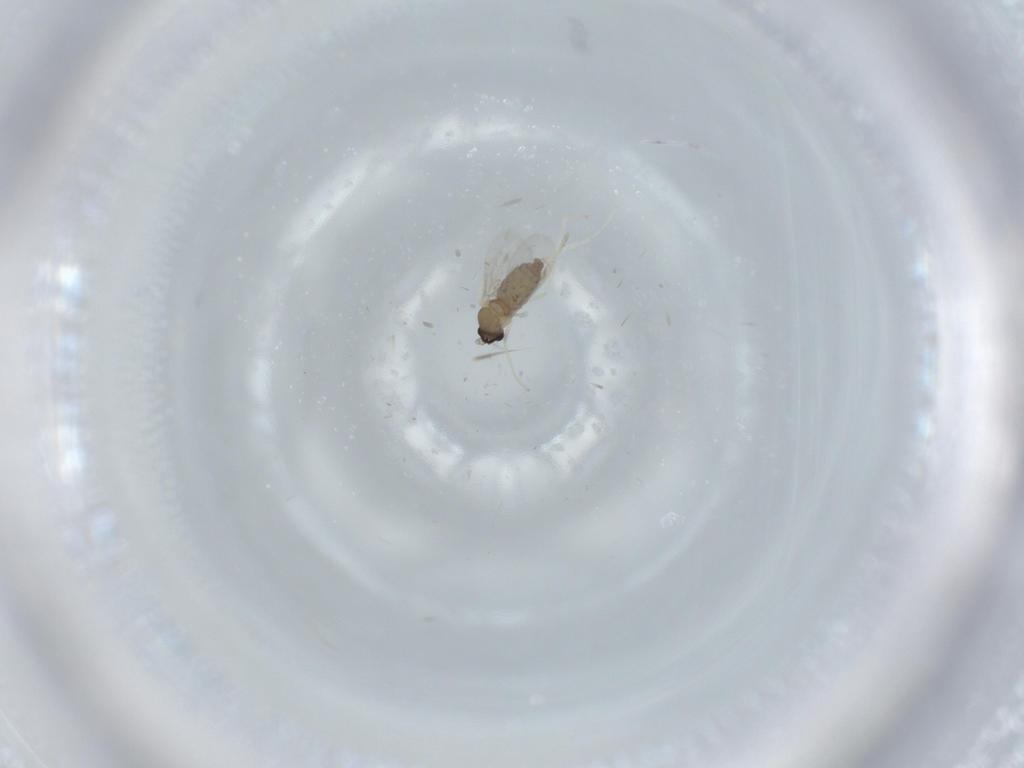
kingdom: Animalia
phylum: Arthropoda
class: Insecta
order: Diptera
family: Cecidomyiidae
